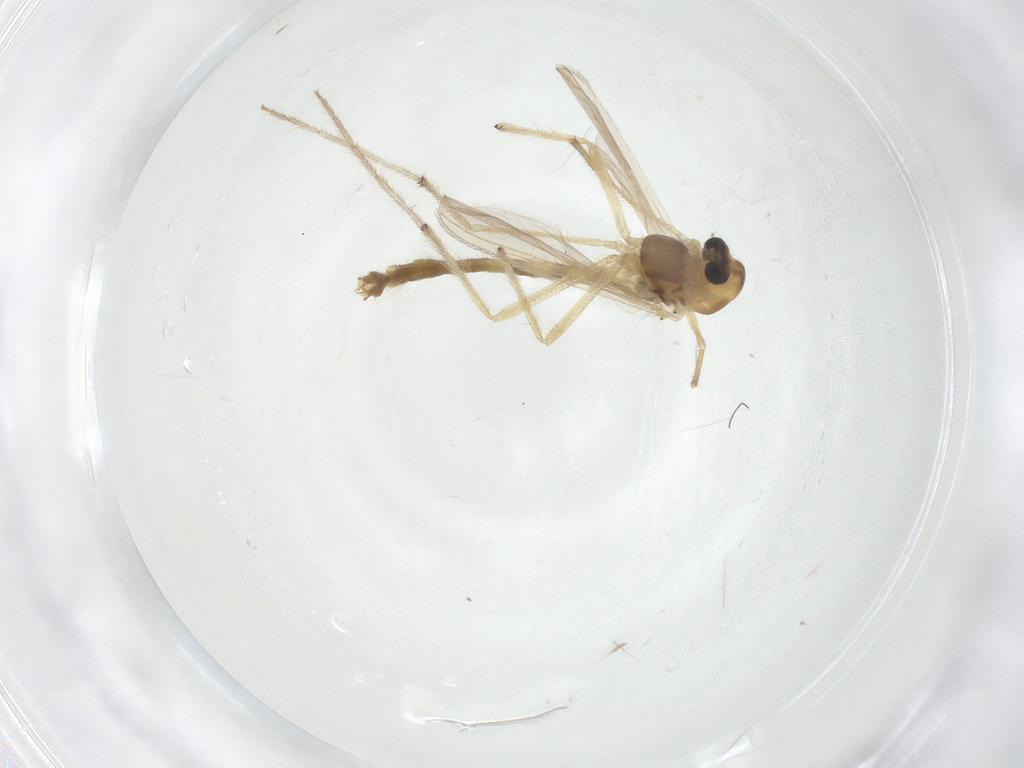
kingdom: Animalia
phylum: Arthropoda
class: Insecta
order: Diptera
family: Chironomidae
